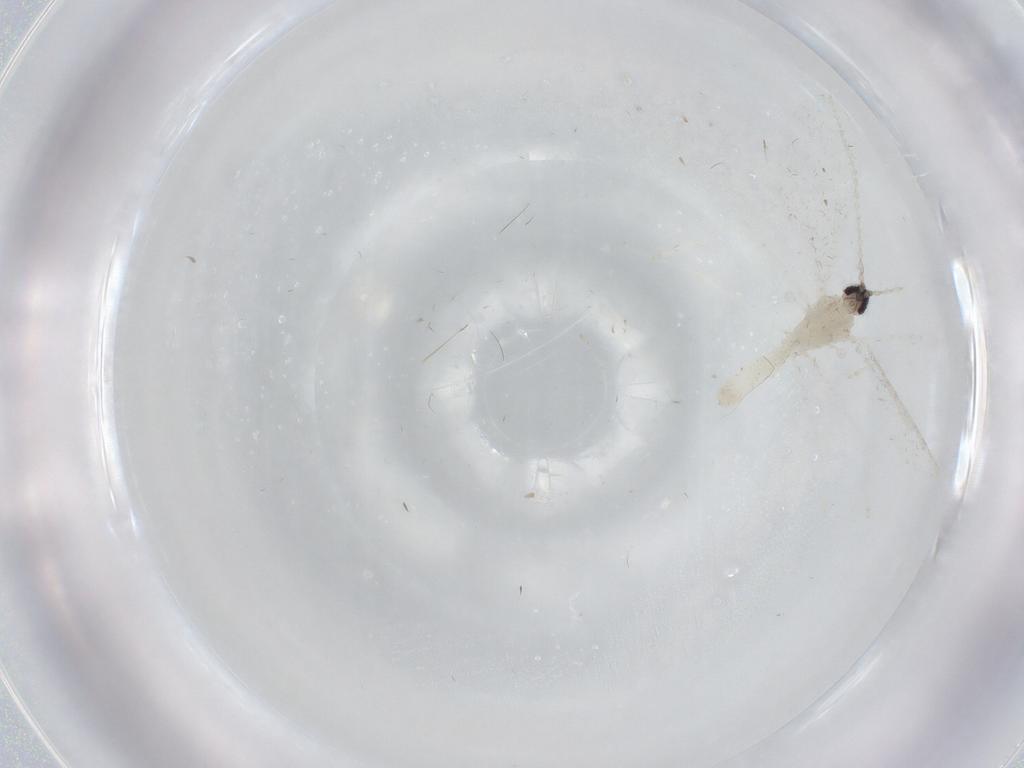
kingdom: Animalia
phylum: Arthropoda
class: Insecta
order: Diptera
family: Cecidomyiidae
